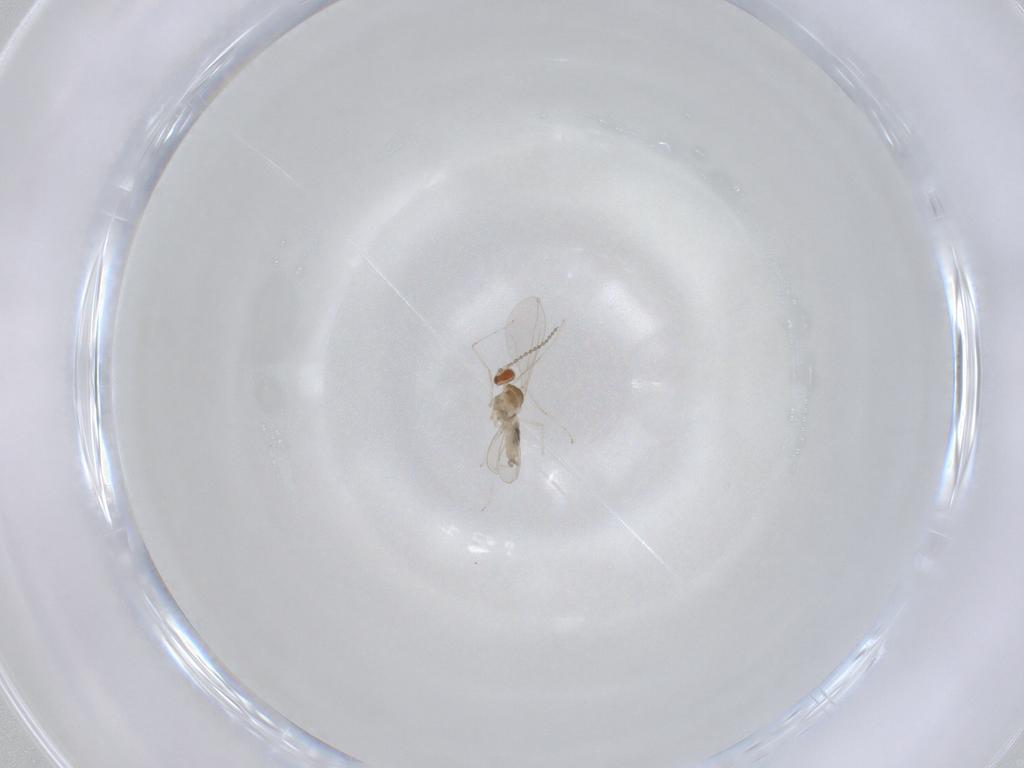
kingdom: Animalia
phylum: Arthropoda
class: Insecta
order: Diptera
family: Cecidomyiidae
